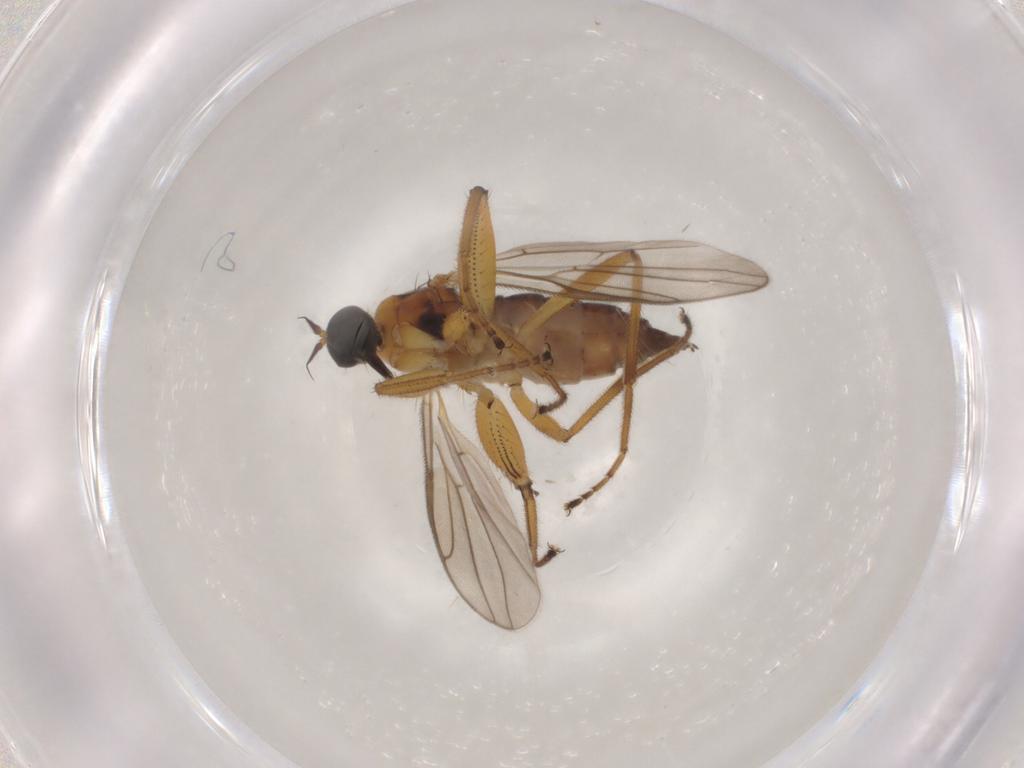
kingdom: Animalia
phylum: Arthropoda
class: Insecta
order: Diptera
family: Hybotidae
